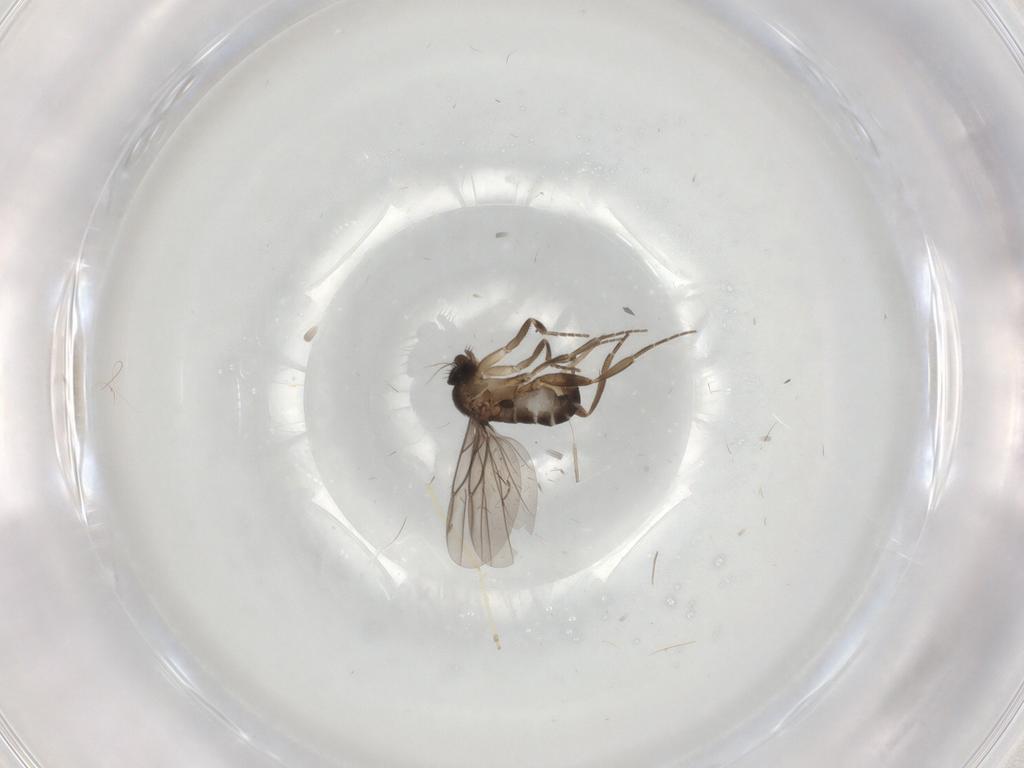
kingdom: Animalia
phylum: Arthropoda
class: Insecta
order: Diptera
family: Chironomidae
